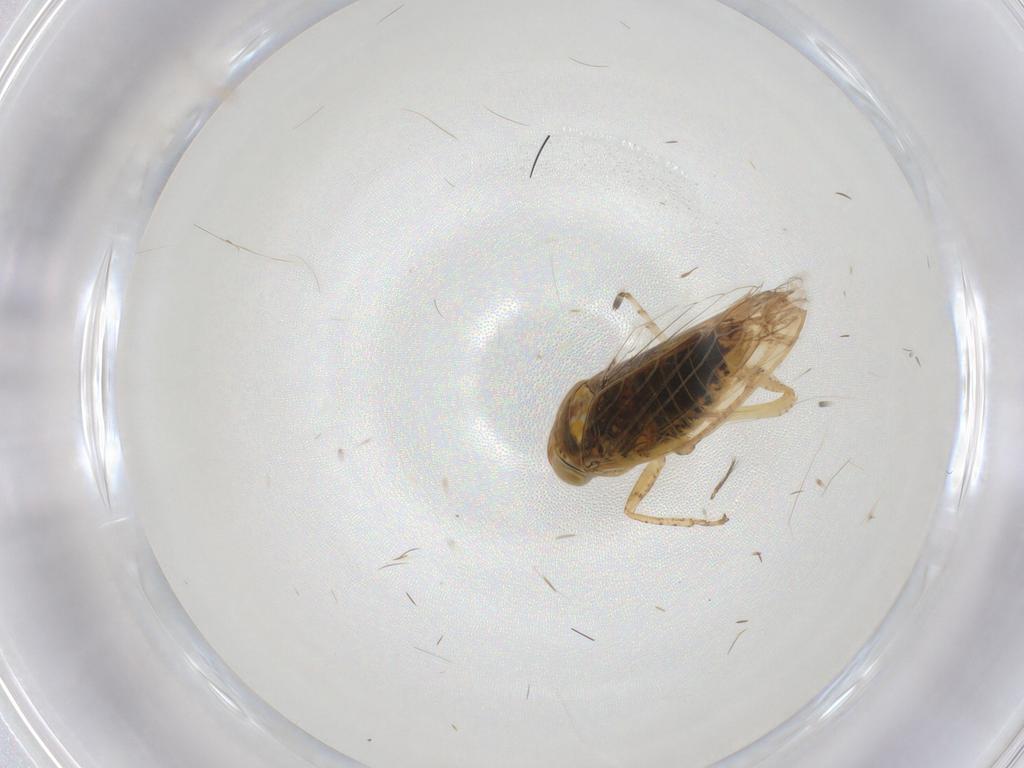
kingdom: Animalia
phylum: Arthropoda
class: Insecta
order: Hemiptera
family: Cicadellidae
